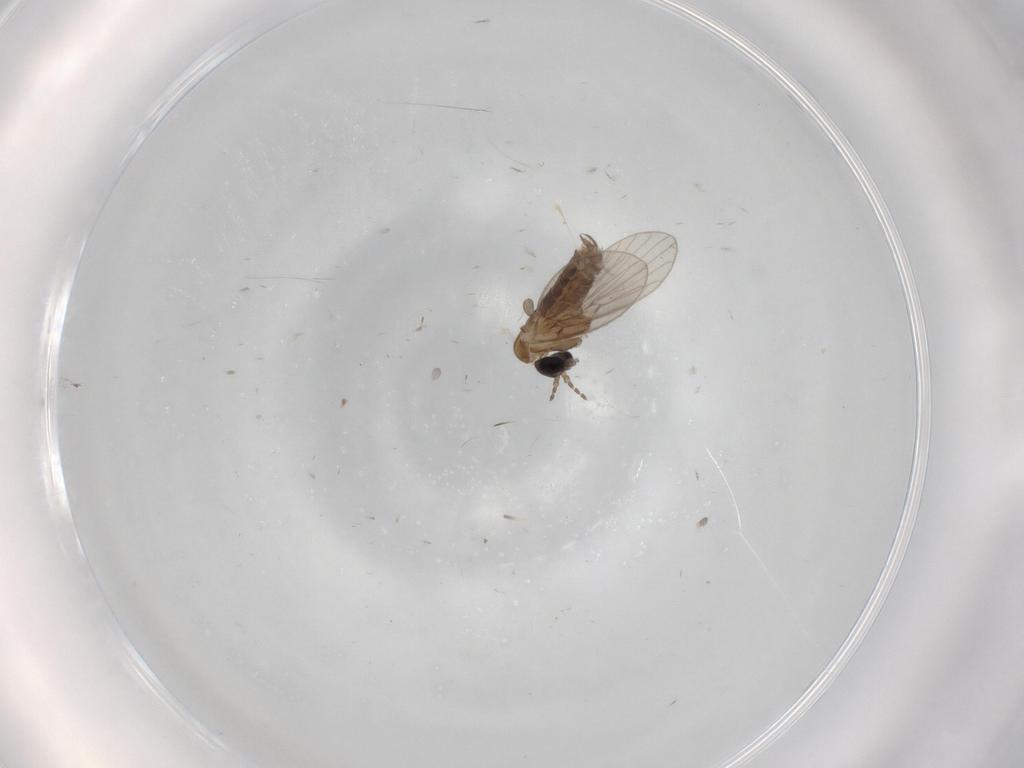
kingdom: Animalia
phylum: Arthropoda
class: Insecta
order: Diptera
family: Psychodidae
